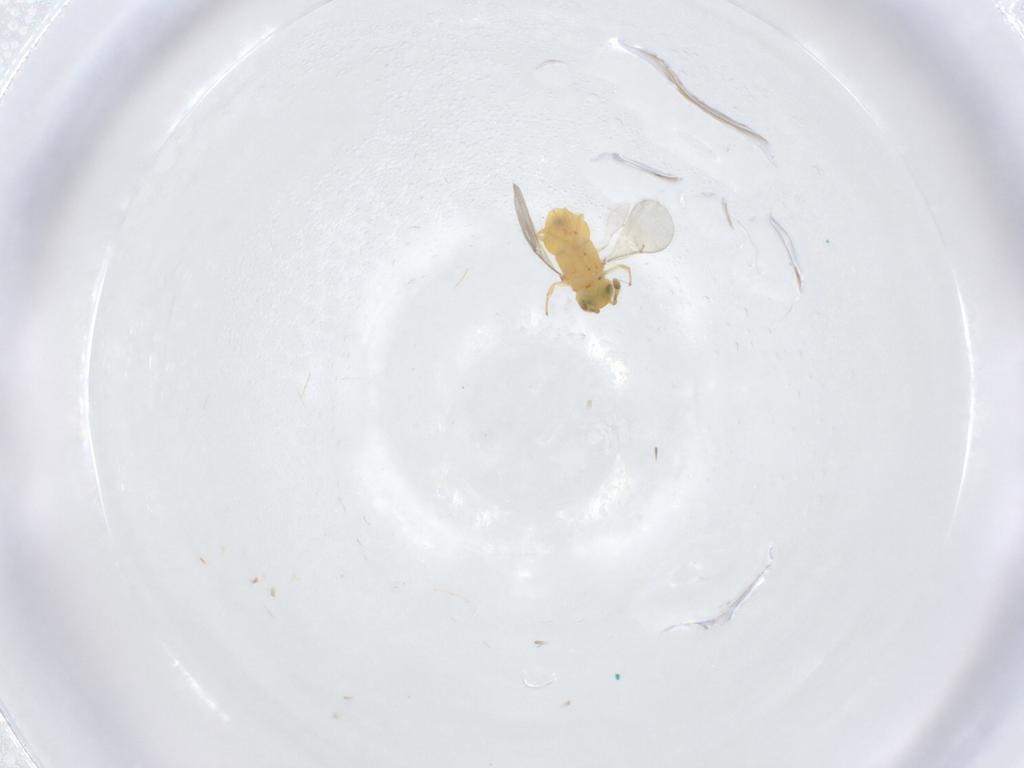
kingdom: Animalia
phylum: Arthropoda
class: Insecta
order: Hymenoptera
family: Encyrtidae
